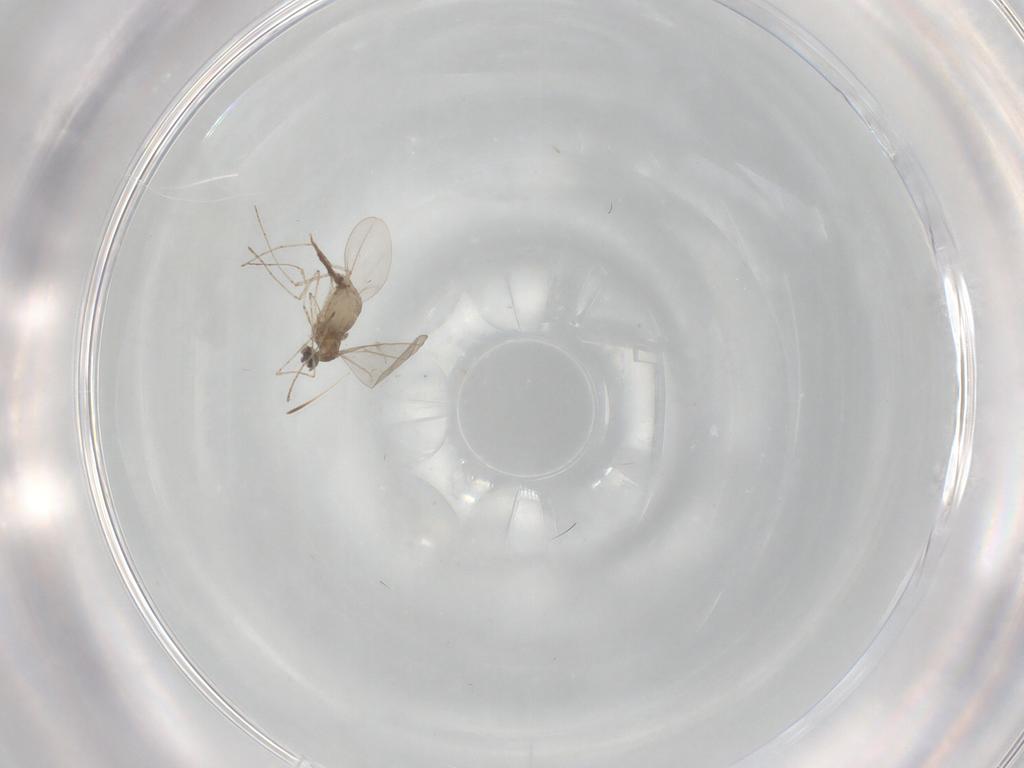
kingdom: Animalia
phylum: Arthropoda
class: Insecta
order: Diptera
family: Cecidomyiidae
